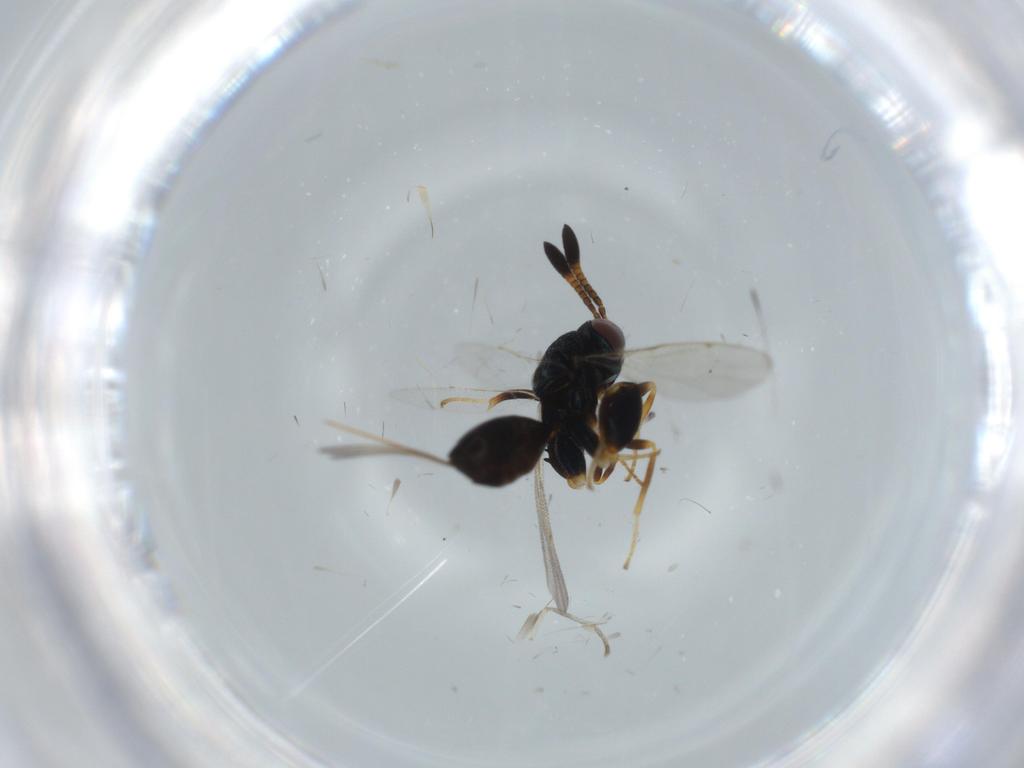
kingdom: Animalia
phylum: Arthropoda
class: Insecta
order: Hymenoptera
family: Torymidae
